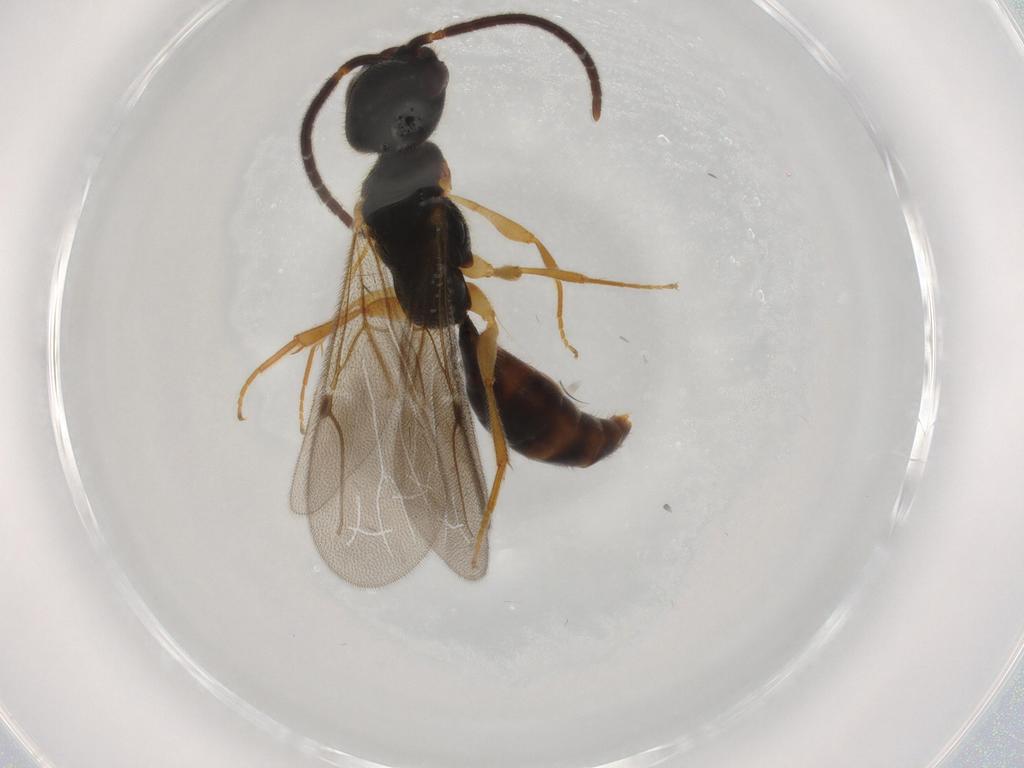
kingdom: Animalia
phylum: Arthropoda
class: Insecta
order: Hymenoptera
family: Bethylidae
